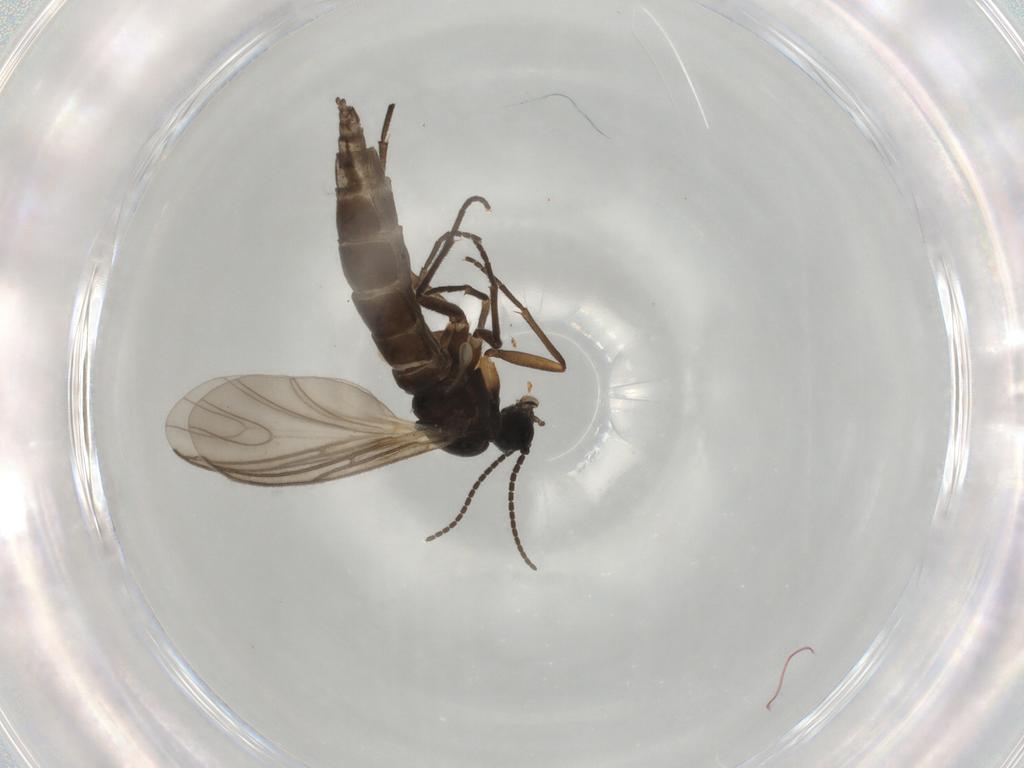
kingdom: Animalia
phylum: Arthropoda
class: Insecta
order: Diptera
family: Sciaridae
